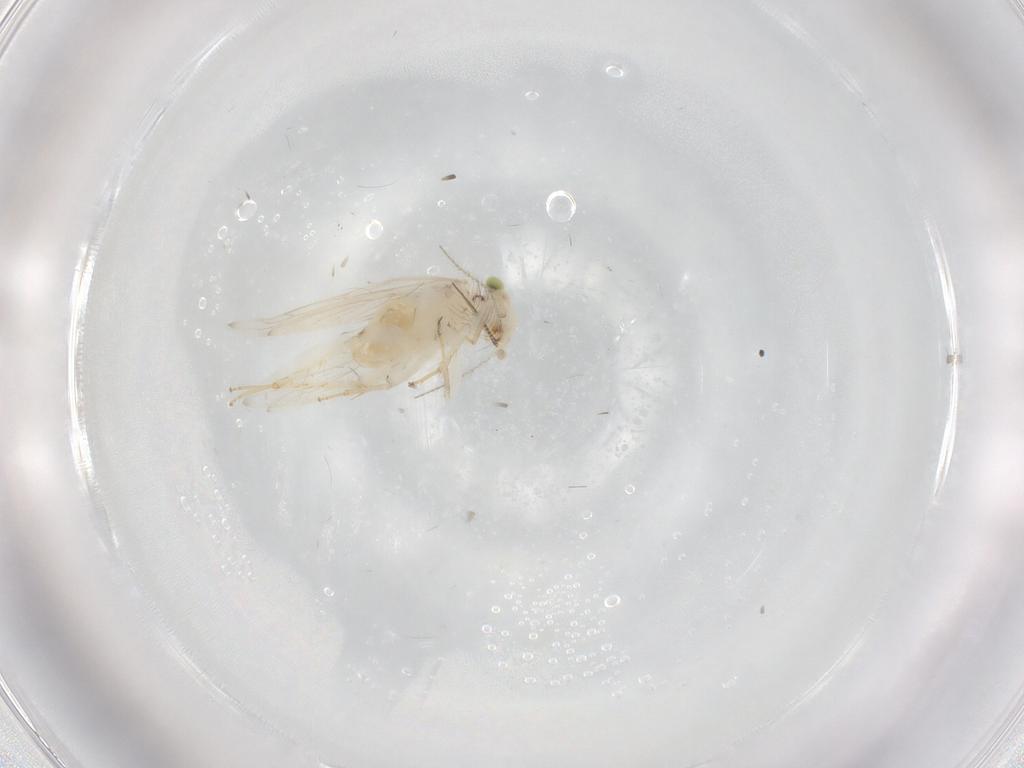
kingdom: Animalia
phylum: Arthropoda
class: Insecta
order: Psocodea
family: Lepidopsocidae
